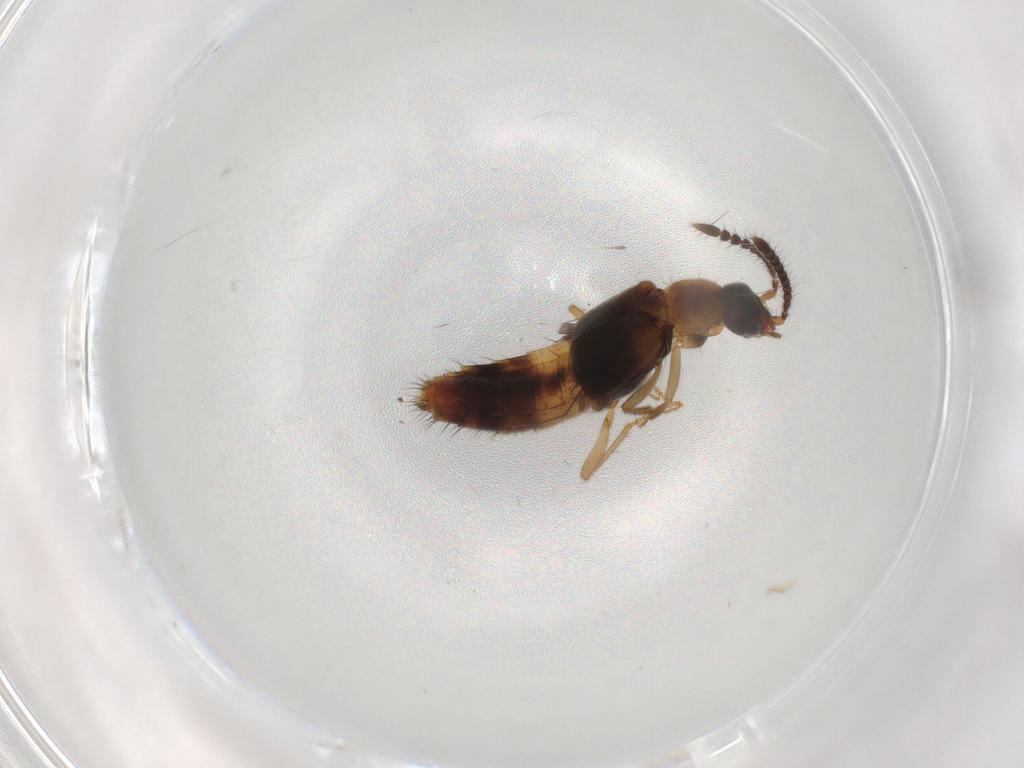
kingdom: Animalia
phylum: Arthropoda
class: Insecta
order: Coleoptera
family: Staphylinidae
